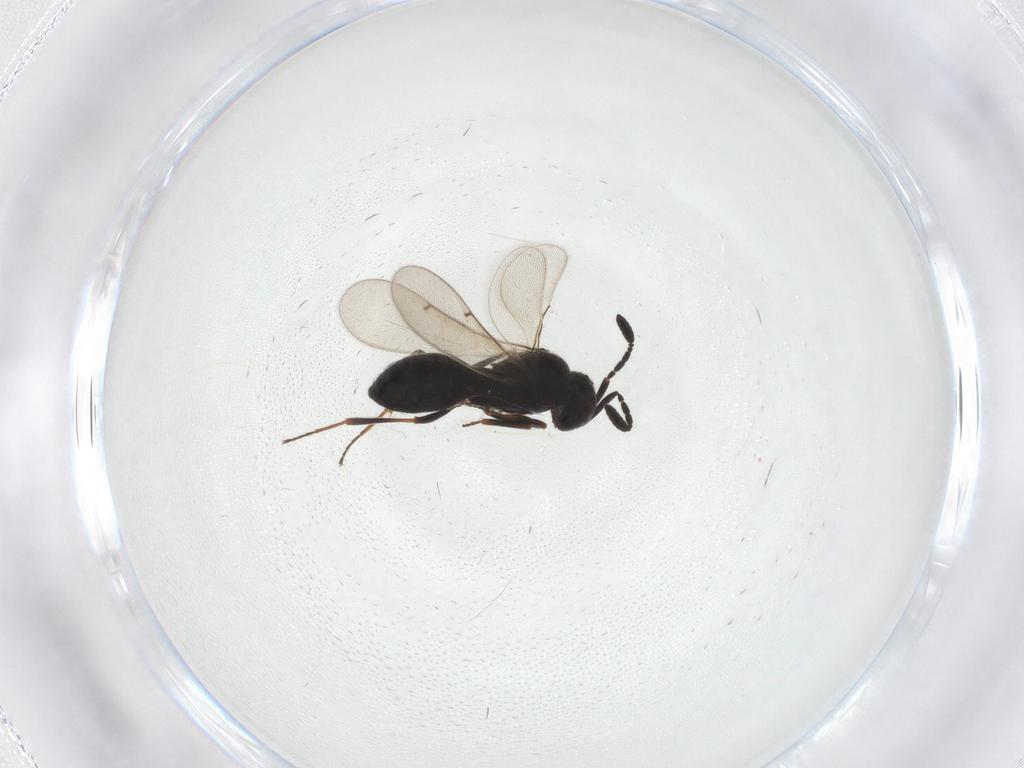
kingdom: Animalia
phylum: Arthropoda
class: Insecta
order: Hymenoptera
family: Scelionidae
